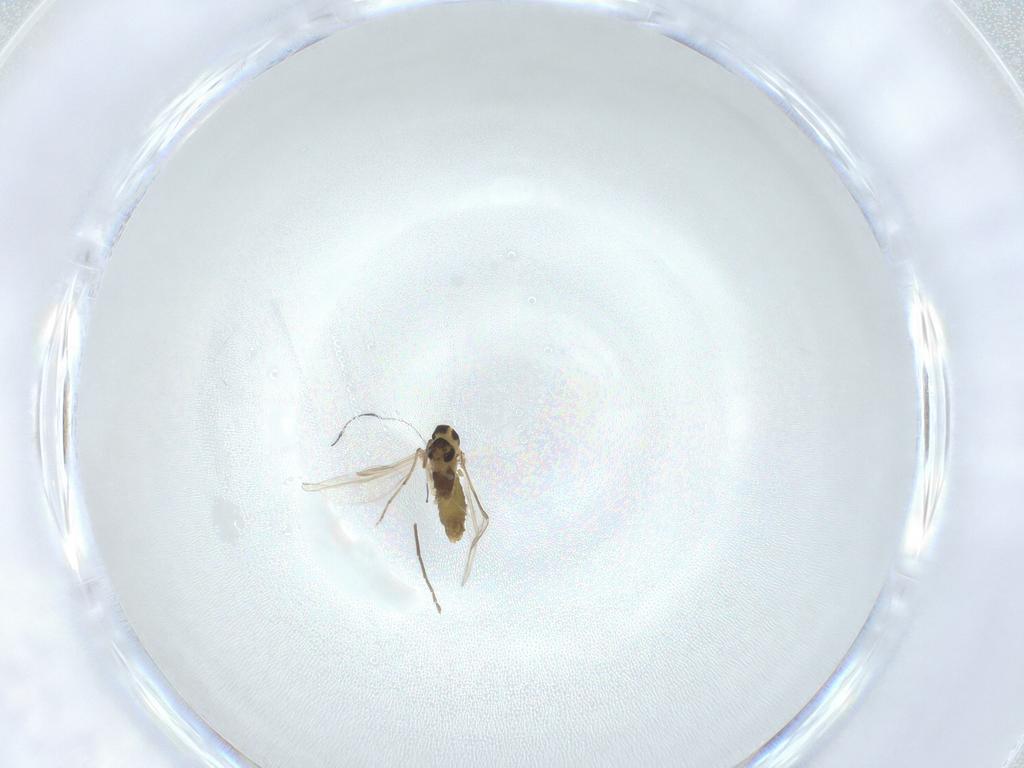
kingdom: Animalia
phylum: Arthropoda
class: Insecta
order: Diptera
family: Chironomidae
